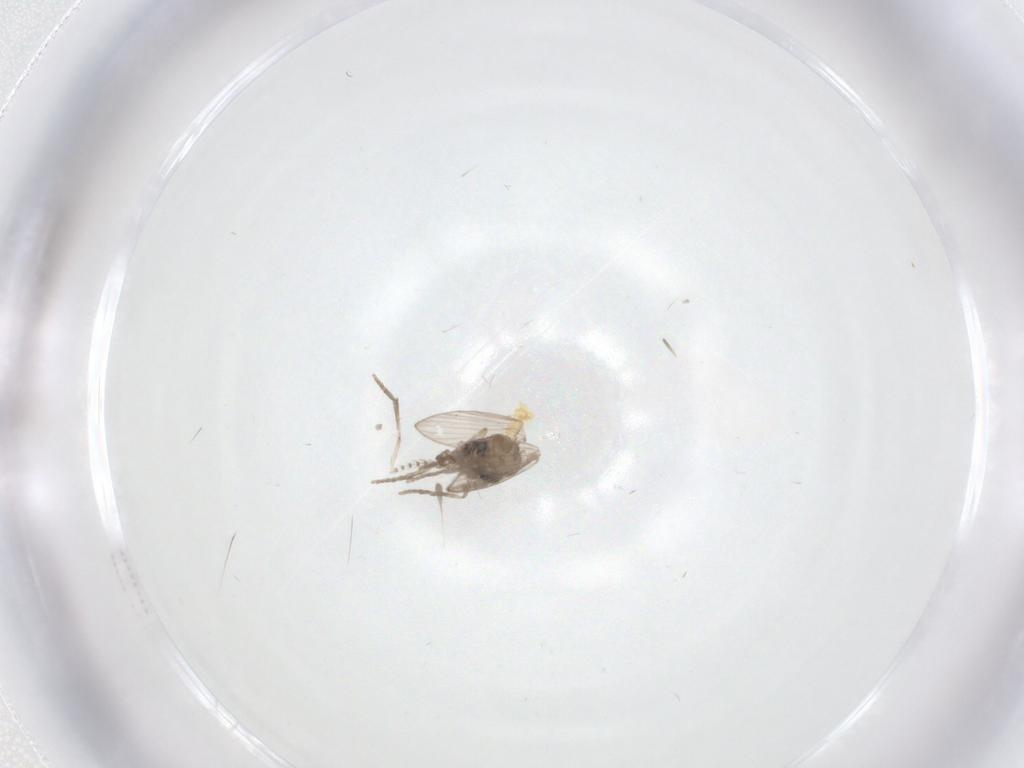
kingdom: Animalia
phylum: Arthropoda
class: Insecta
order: Diptera
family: Psychodidae
